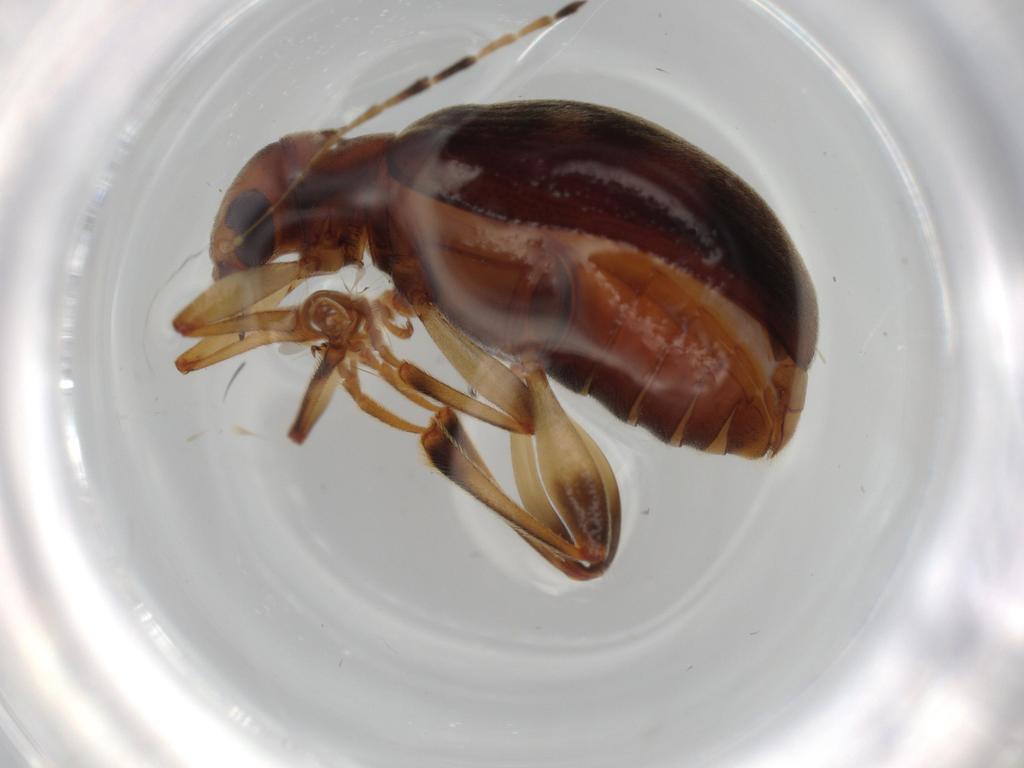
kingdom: Animalia
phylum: Arthropoda
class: Insecta
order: Coleoptera
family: Chrysomelidae
